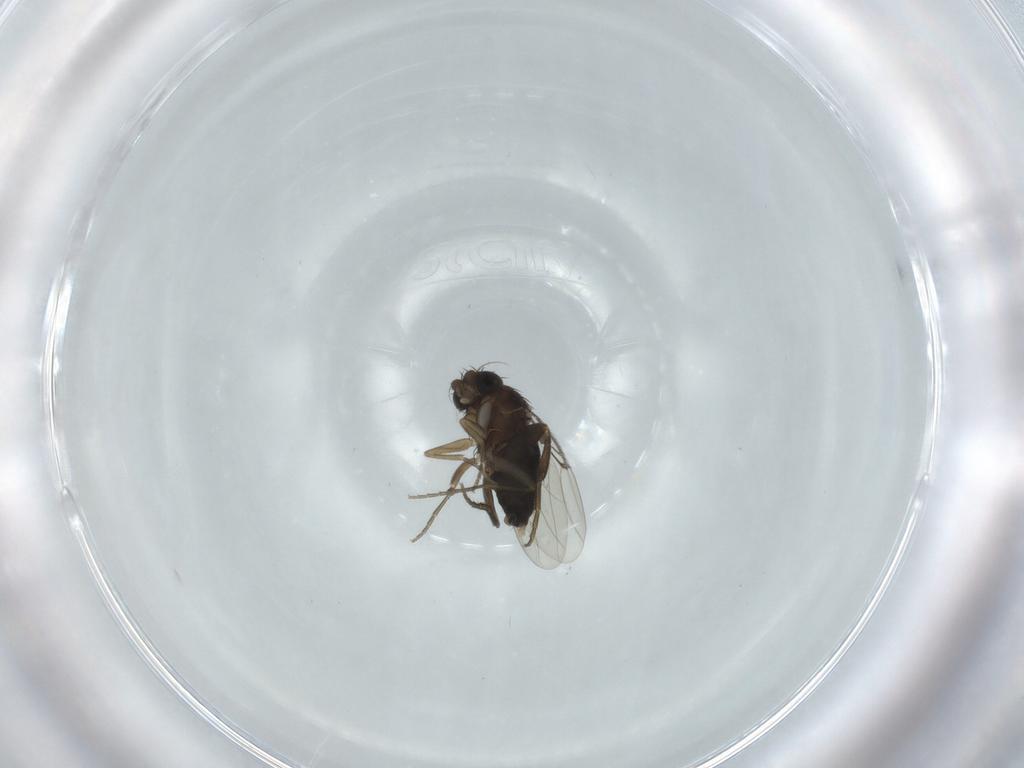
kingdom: Animalia
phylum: Arthropoda
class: Insecta
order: Diptera
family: Phoridae
